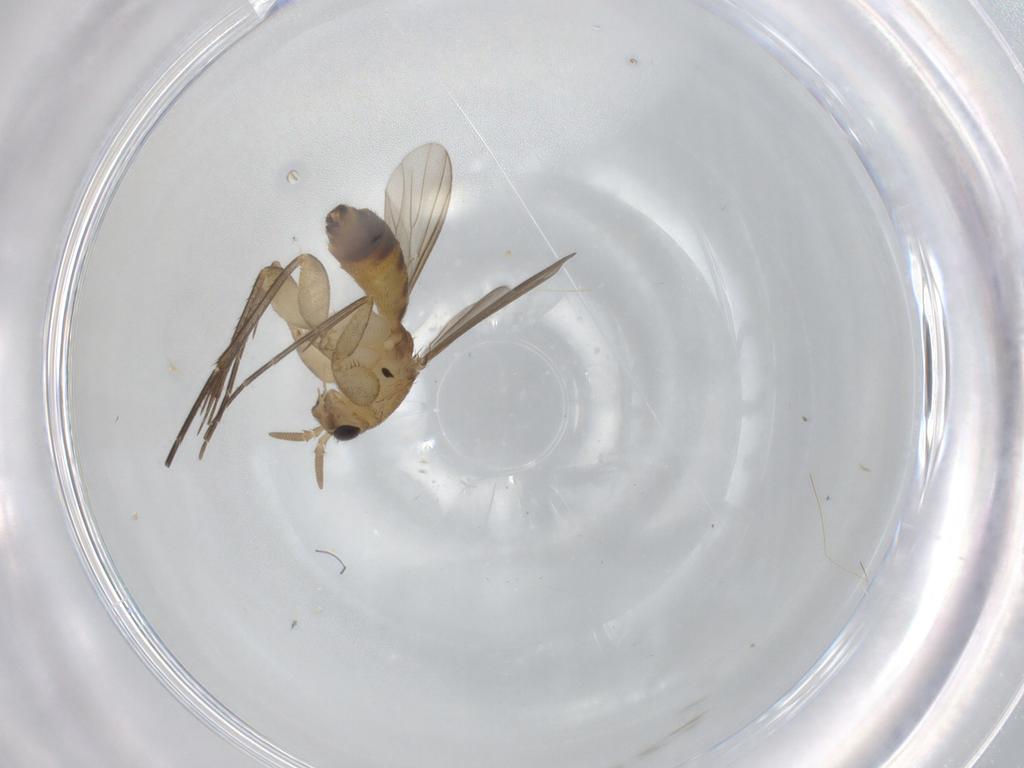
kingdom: Animalia
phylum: Arthropoda
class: Insecta
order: Diptera
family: Mycetophilidae
